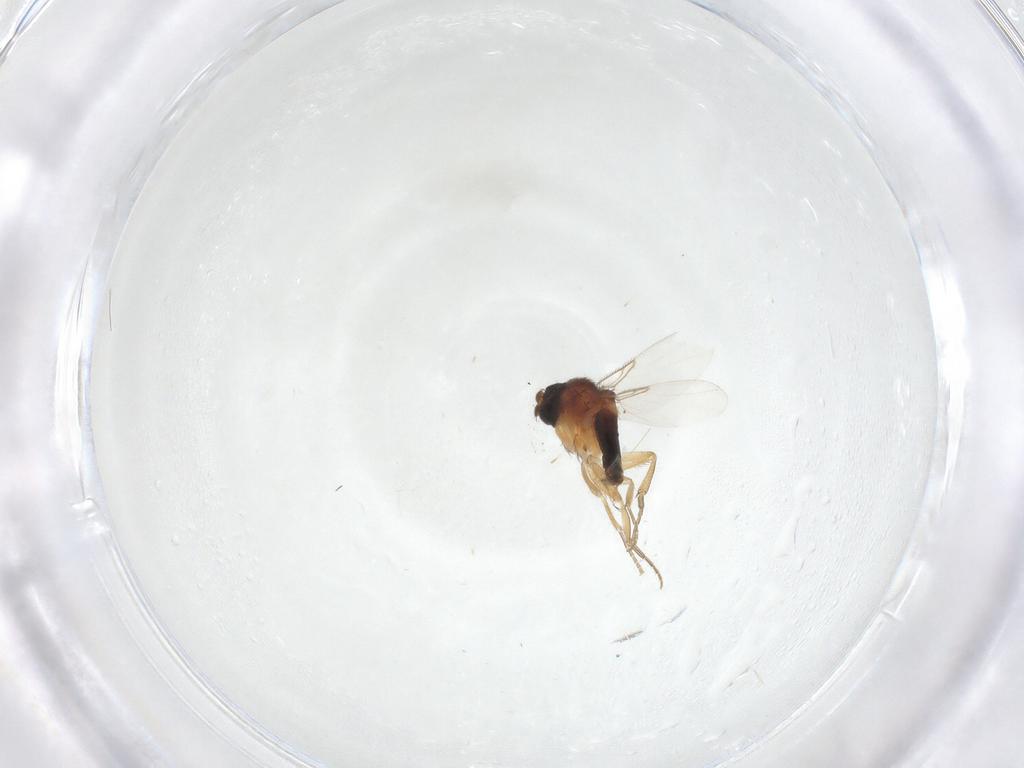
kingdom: Animalia
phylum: Arthropoda
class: Insecta
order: Diptera
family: Phoridae
